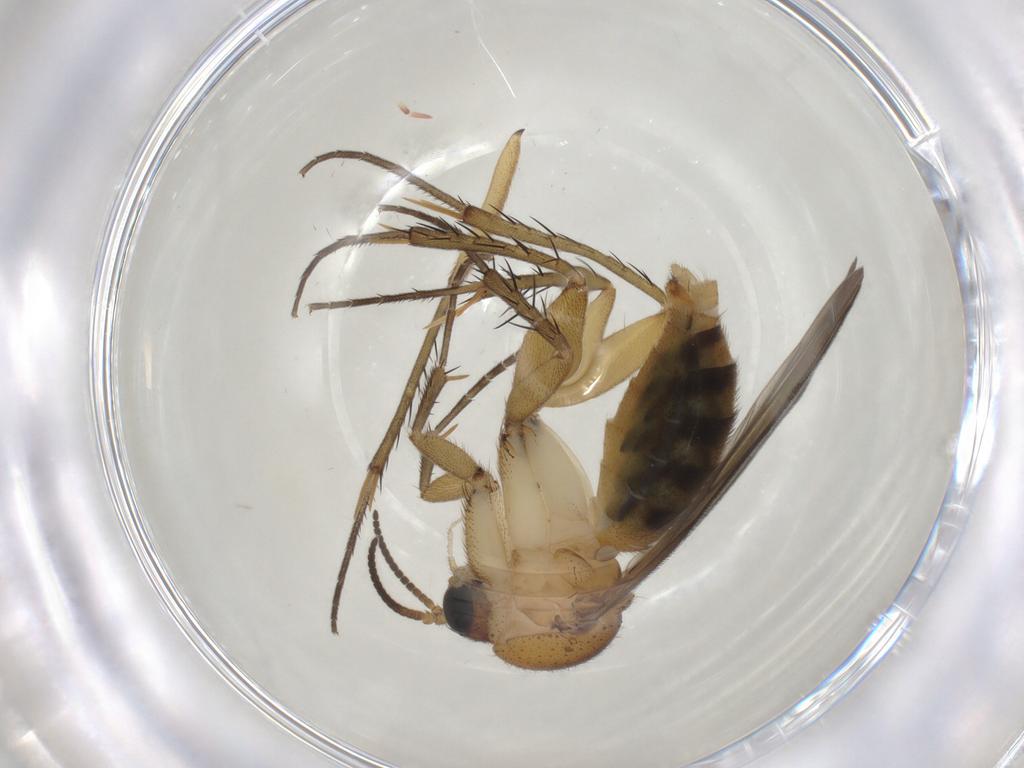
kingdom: Animalia
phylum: Arthropoda
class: Insecta
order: Diptera
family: Mycetophilidae
